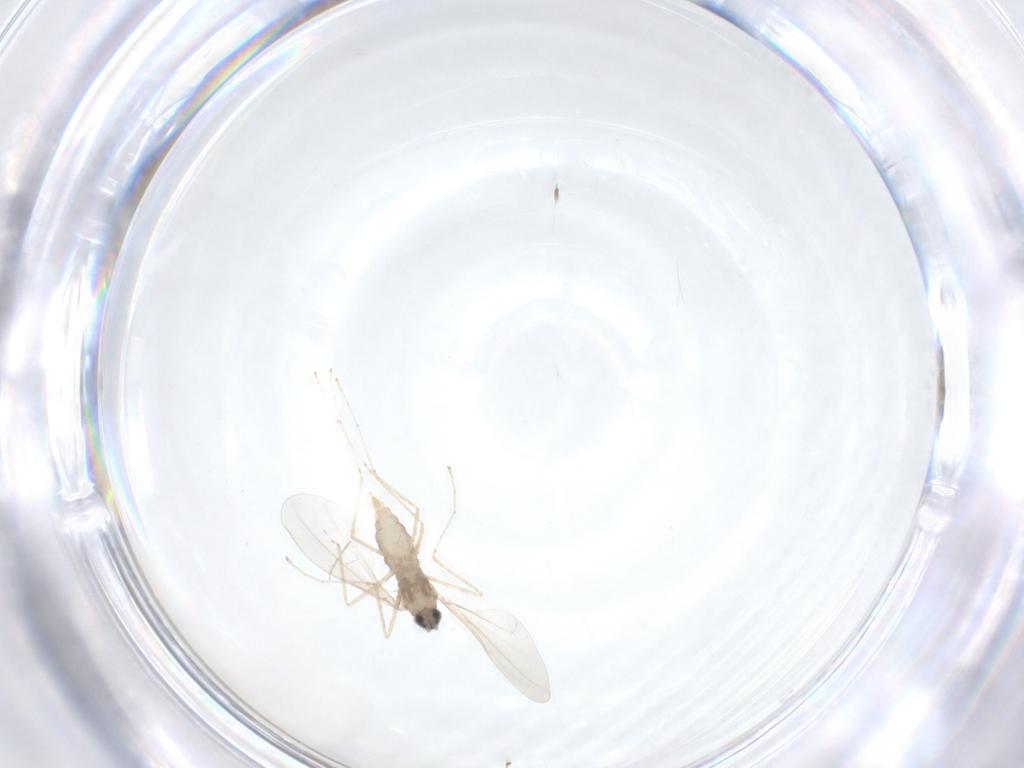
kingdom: Animalia
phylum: Arthropoda
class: Insecta
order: Diptera
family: Chironomidae
